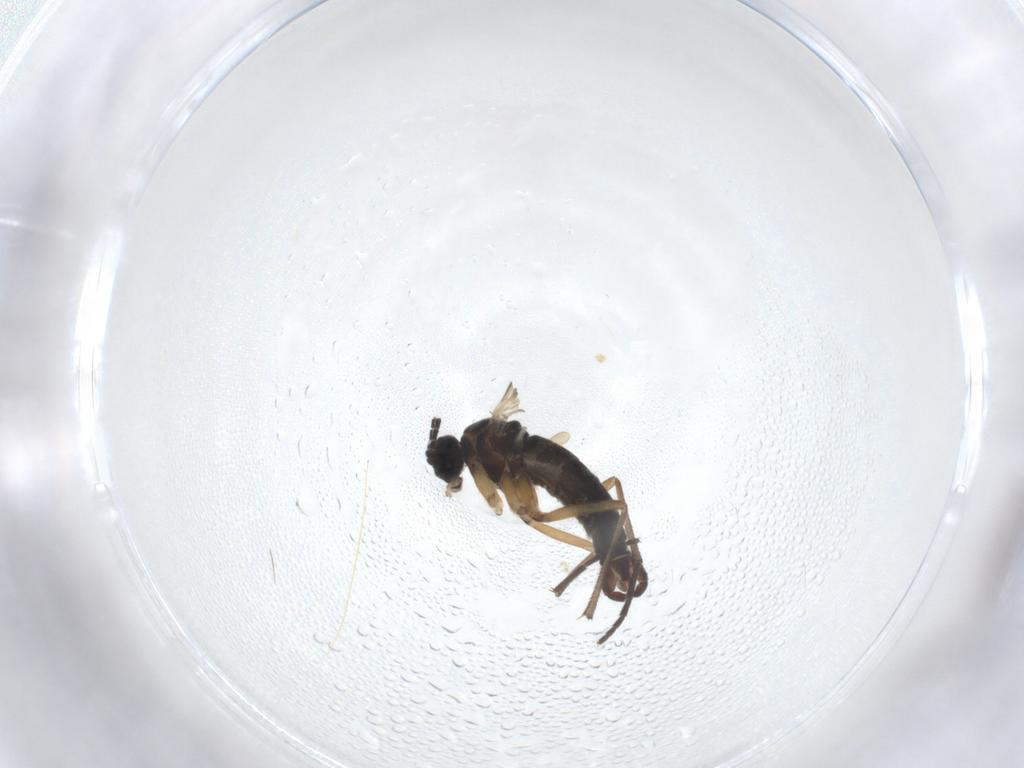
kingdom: Animalia
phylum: Arthropoda
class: Insecta
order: Diptera
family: Sciaridae
